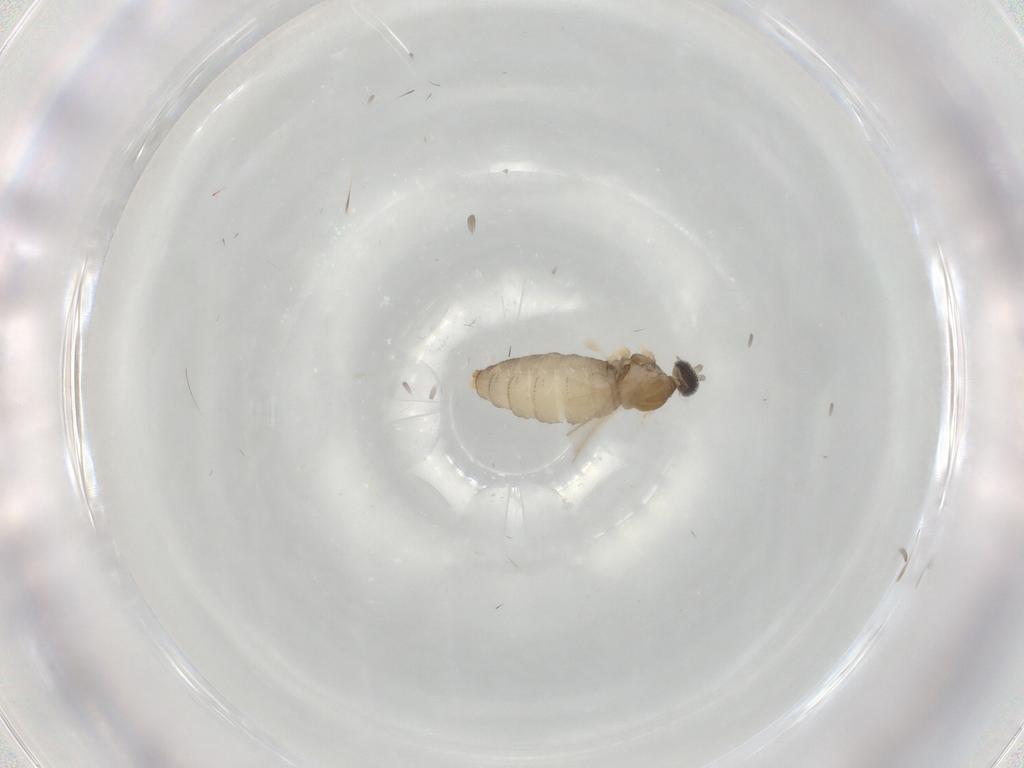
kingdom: Animalia
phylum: Arthropoda
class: Insecta
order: Diptera
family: Cecidomyiidae
